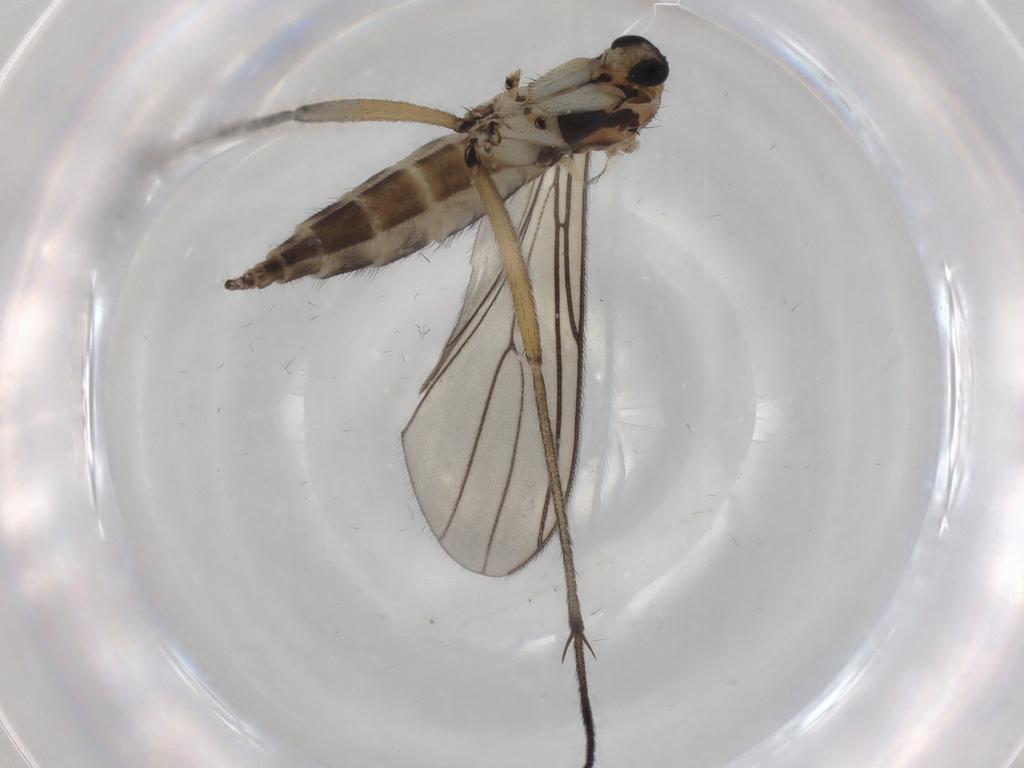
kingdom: Animalia
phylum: Arthropoda
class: Insecta
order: Diptera
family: Sciaridae
